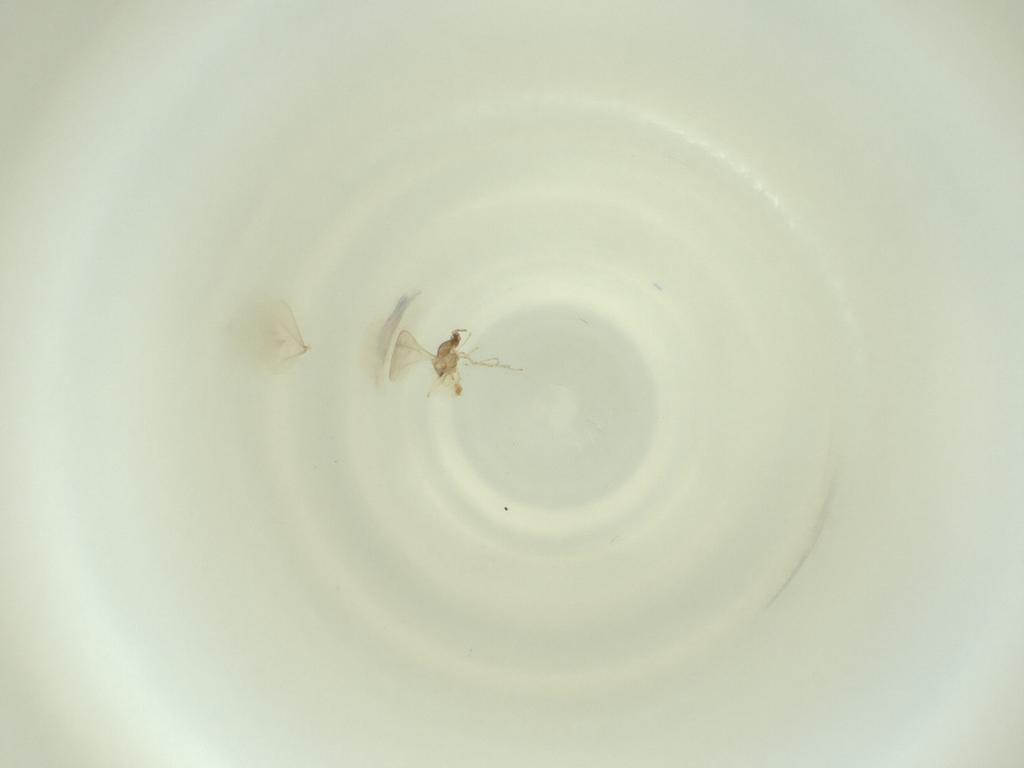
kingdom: Animalia
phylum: Arthropoda
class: Insecta
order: Diptera
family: Cecidomyiidae
